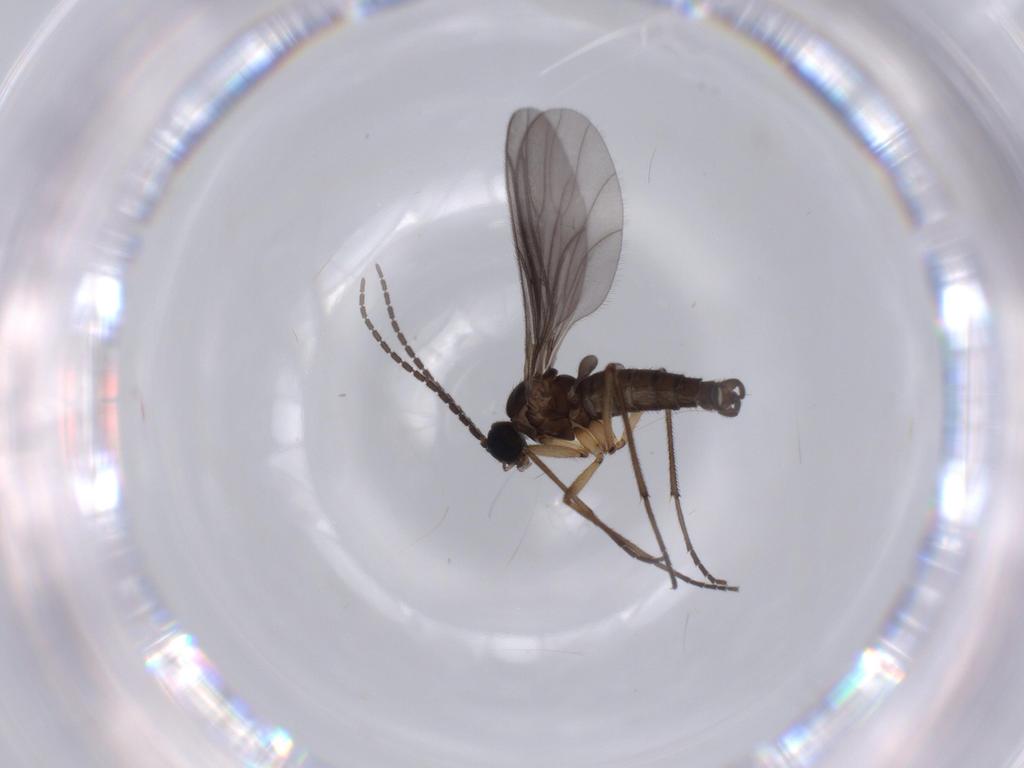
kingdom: Animalia
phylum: Arthropoda
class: Insecta
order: Diptera
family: Sciaridae
